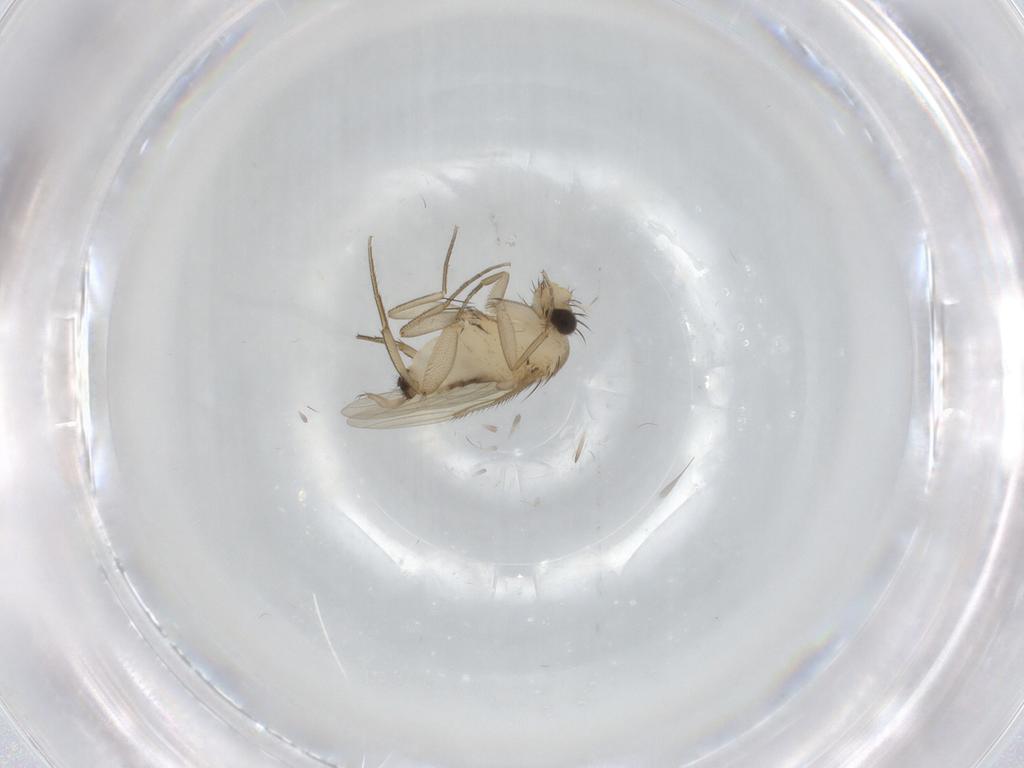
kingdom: Animalia
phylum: Arthropoda
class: Insecta
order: Diptera
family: Phoridae
